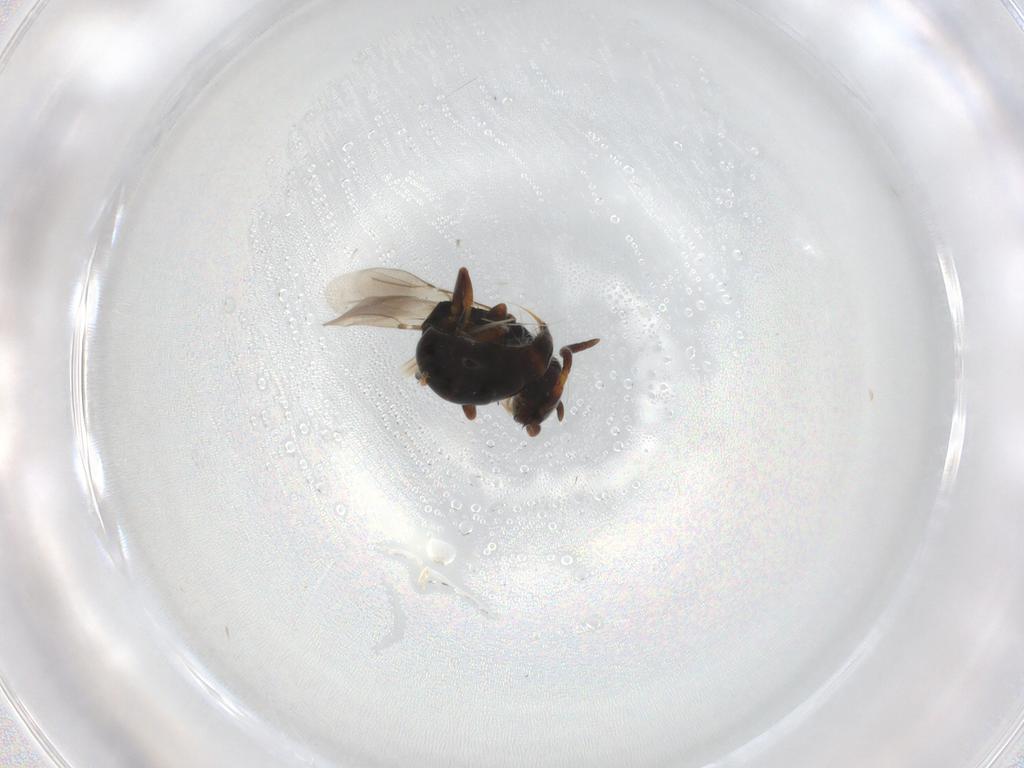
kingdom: Animalia
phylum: Arthropoda
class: Insecta
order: Hymenoptera
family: Bethylidae
